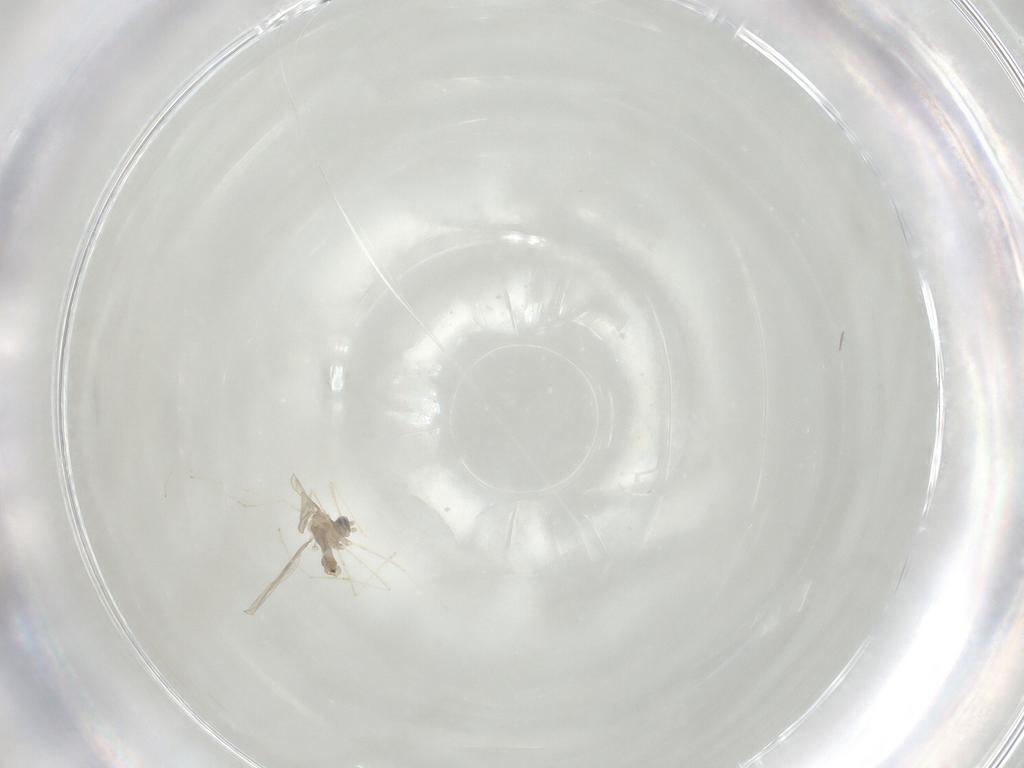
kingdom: Animalia
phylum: Arthropoda
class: Insecta
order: Diptera
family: Cecidomyiidae
